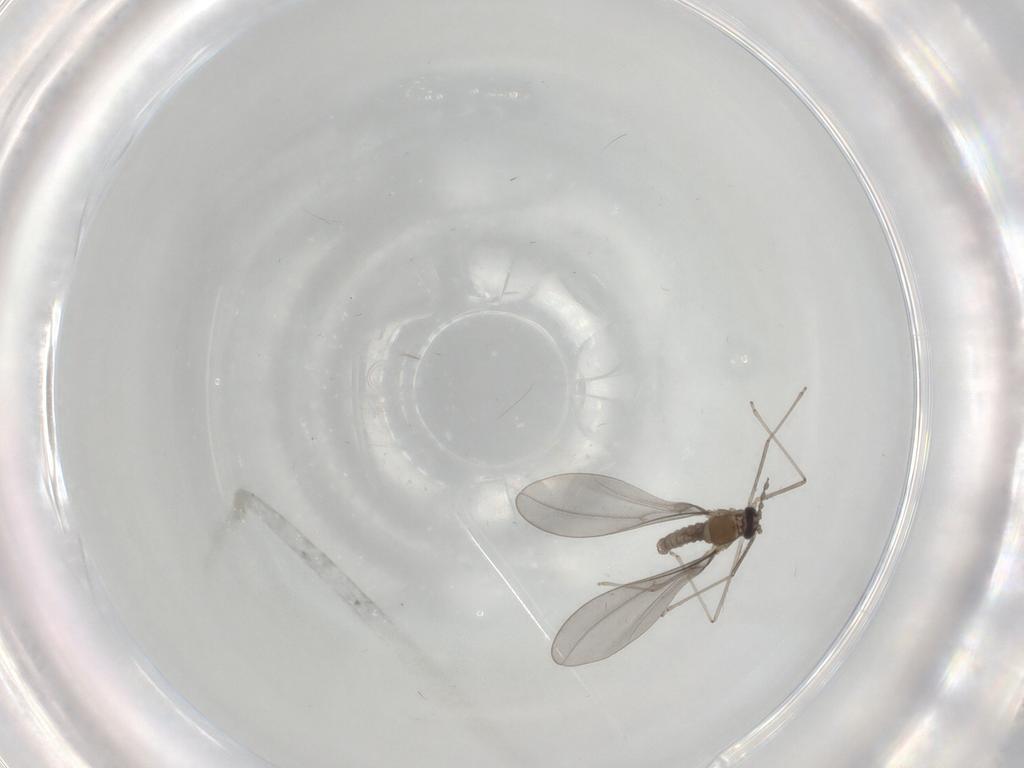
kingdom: Animalia
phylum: Arthropoda
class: Insecta
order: Diptera
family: Cecidomyiidae
